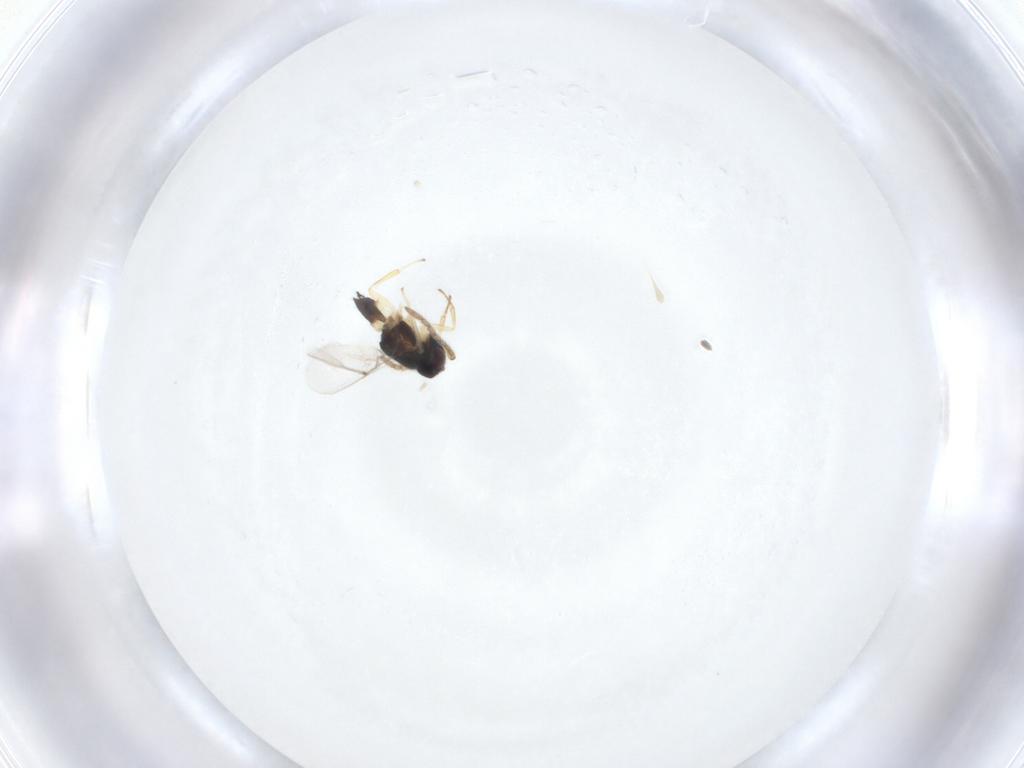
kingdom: Animalia
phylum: Arthropoda
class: Insecta
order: Hymenoptera
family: Encyrtidae
